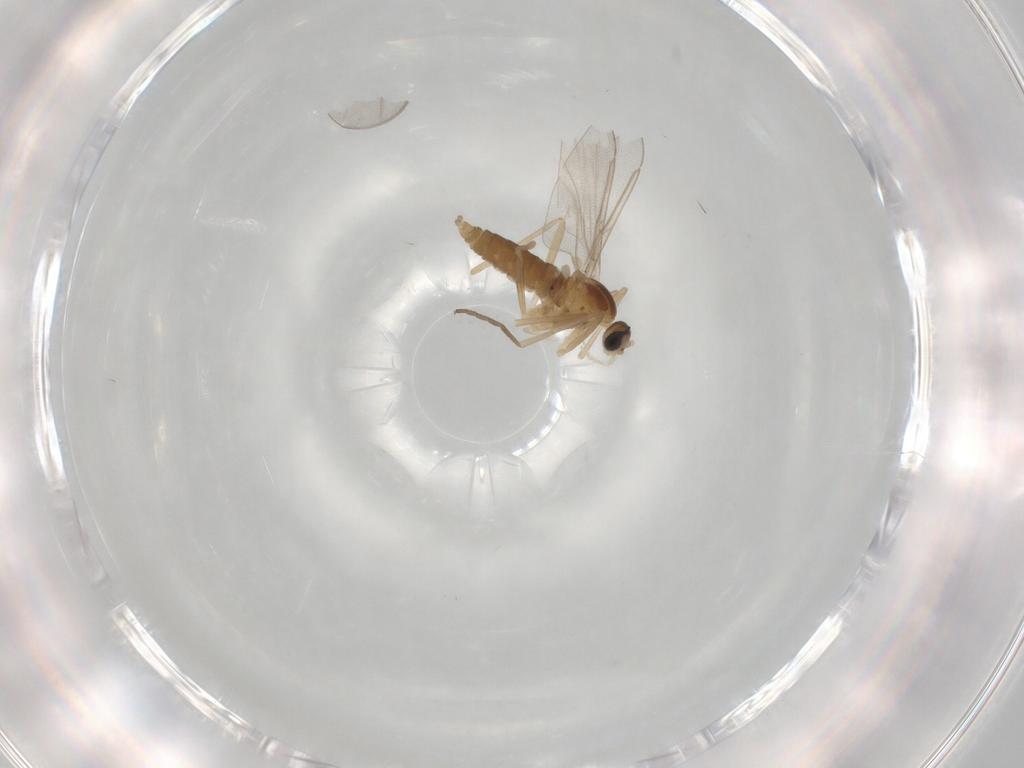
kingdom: Animalia
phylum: Arthropoda
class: Insecta
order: Diptera
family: Cecidomyiidae
